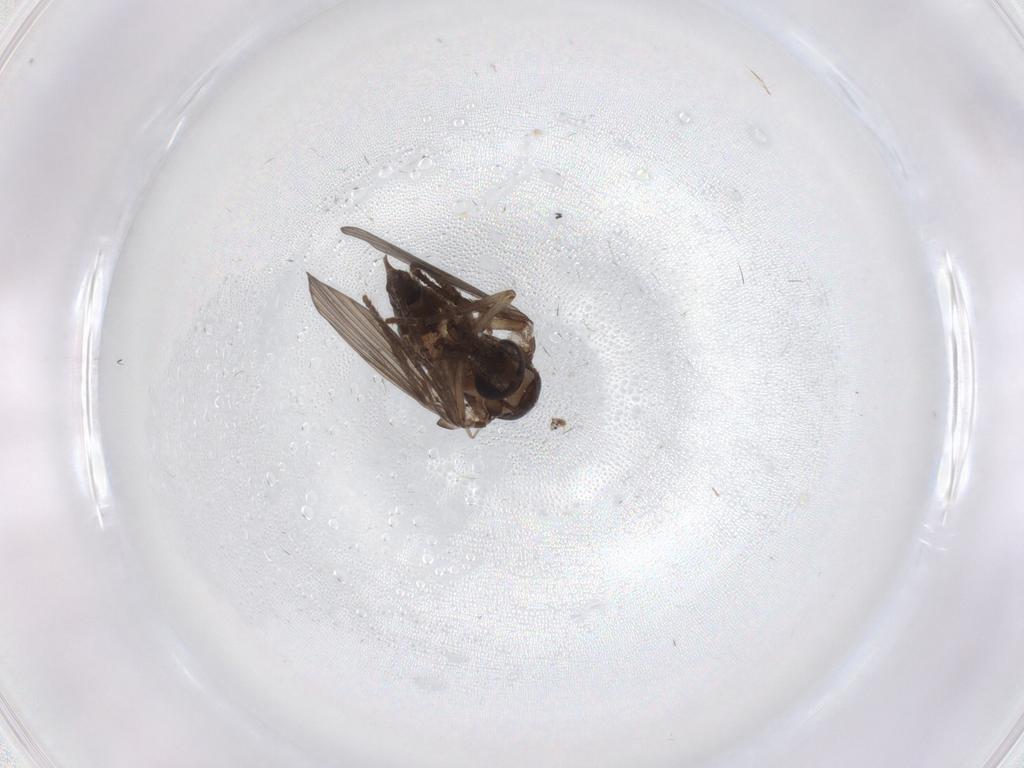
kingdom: Animalia
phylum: Arthropoda
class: Insecta
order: Diptera
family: Psychodidae
